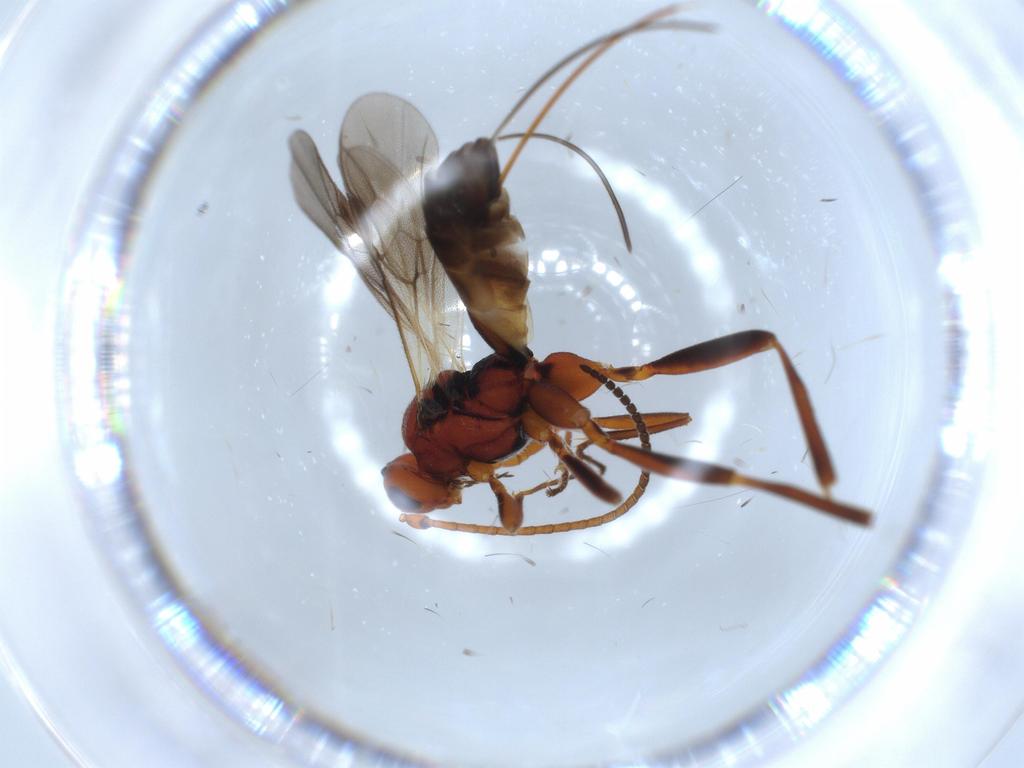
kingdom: Animalia
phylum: Arthropoda
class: Insecta
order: Hymenoptera
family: Braconidae
